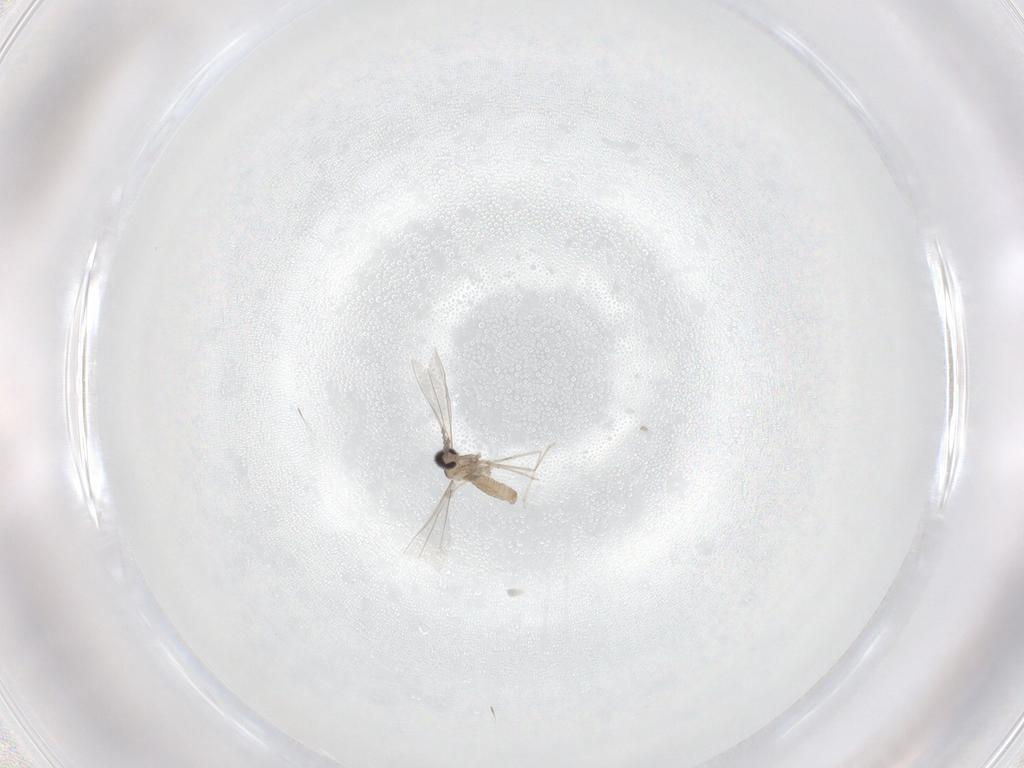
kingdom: Animalia
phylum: Arthropoda
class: Insecta
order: Diptera
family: Cecidomyiidae
